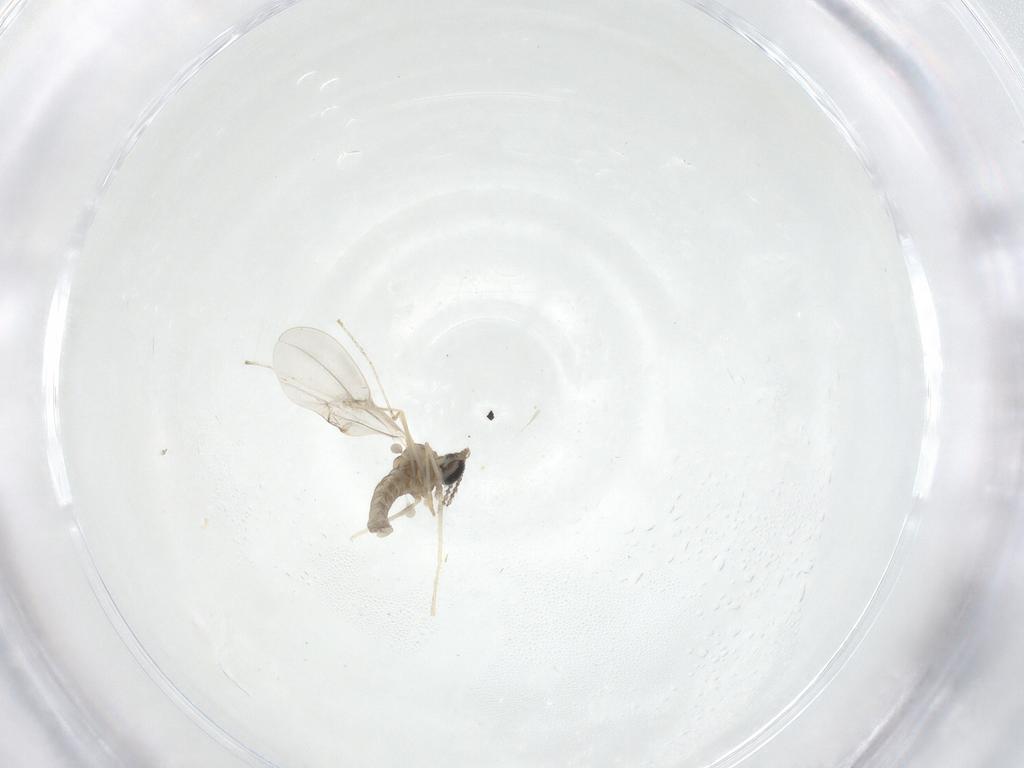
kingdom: Animalia
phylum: Arthropoda
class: Insecta
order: Diptera
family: Cecidomyiidae
